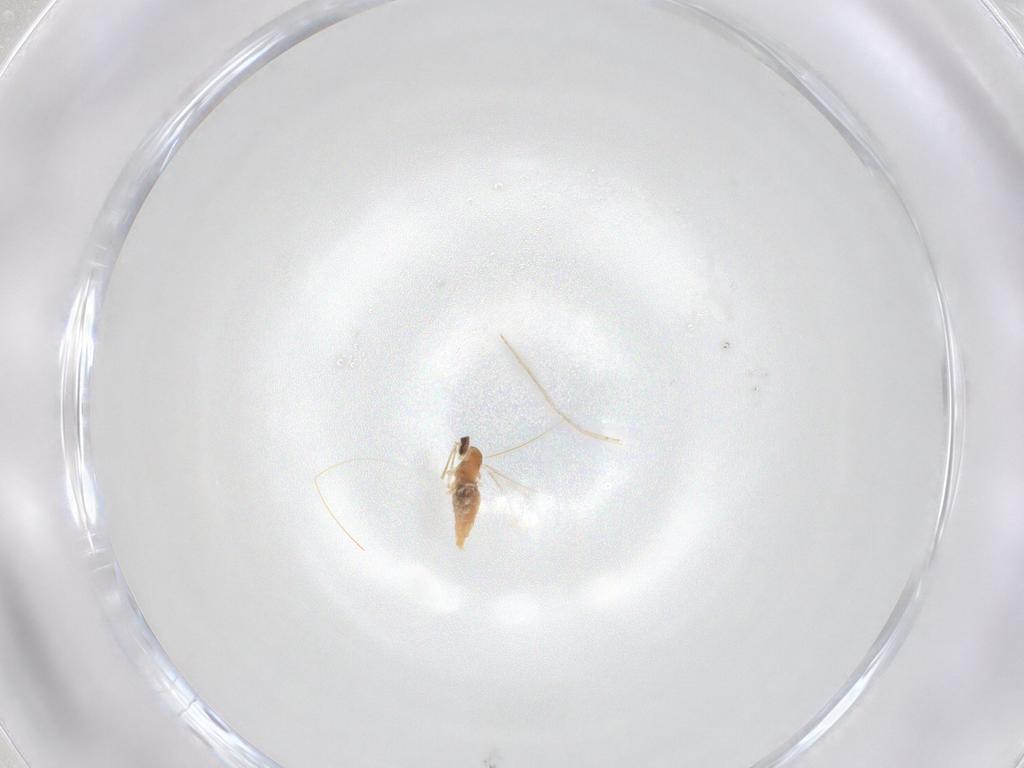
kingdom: Animalia
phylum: Arthropoda
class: Insecta
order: Diptera
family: Cecidomyiidae
